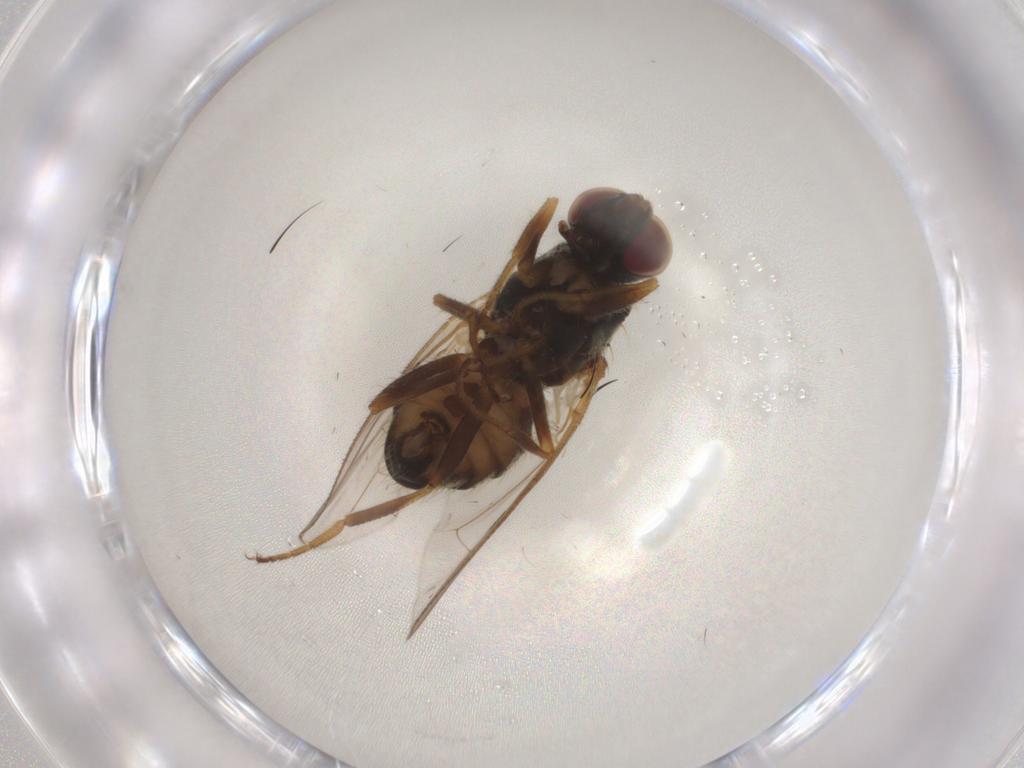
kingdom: Animalia
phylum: Arthropoda
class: Insecta
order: Diptera
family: Muscidae
